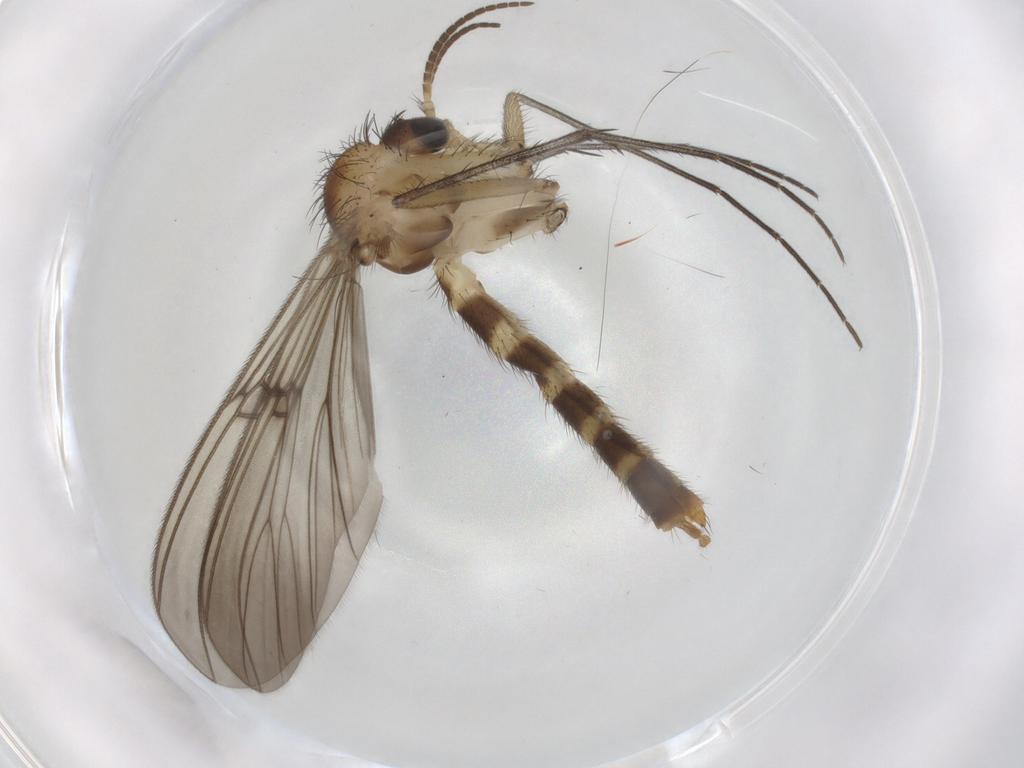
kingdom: Animalia
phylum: Arthropoda
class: Insecta
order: Diptera
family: Mycetophilidae
